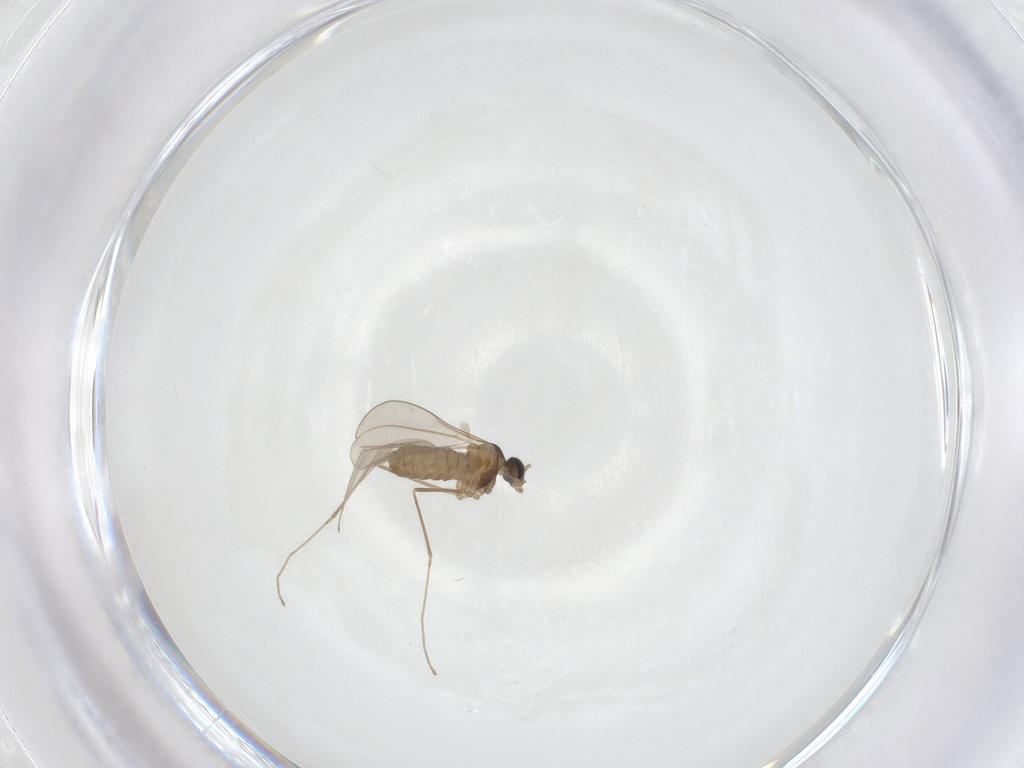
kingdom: Animalia
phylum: Arthropoda
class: Insecta
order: Diptera
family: Cecidomyiidae
